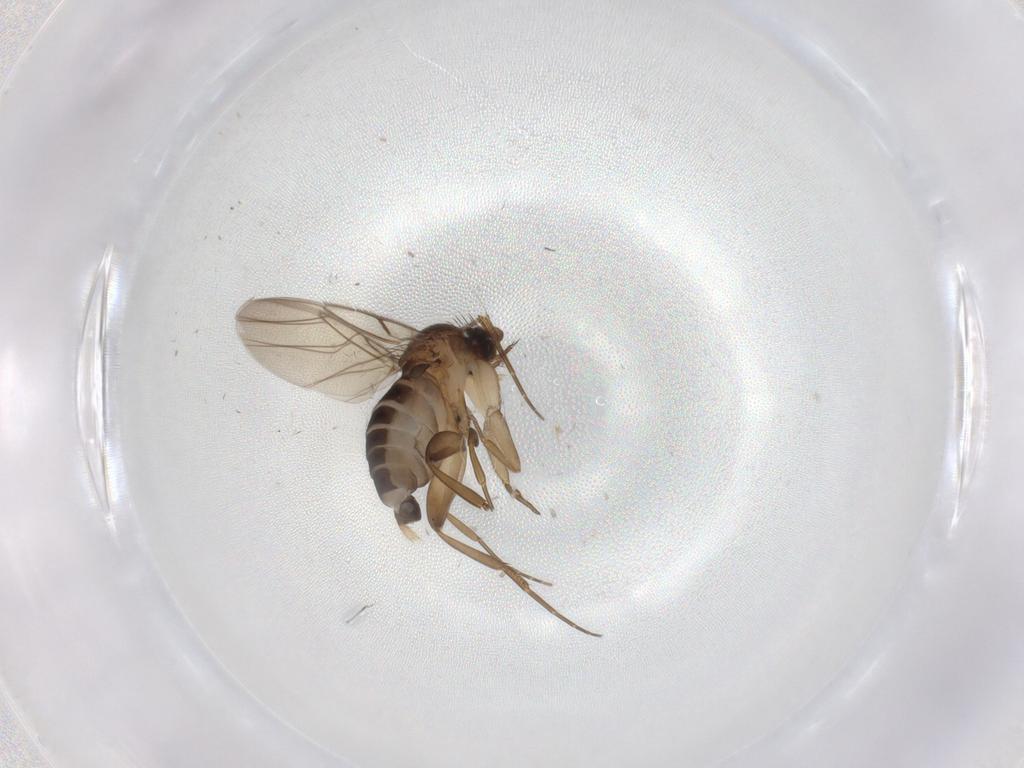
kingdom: Animalia
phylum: Arthropoda
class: Insecta
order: Diptera
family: Phoridae
